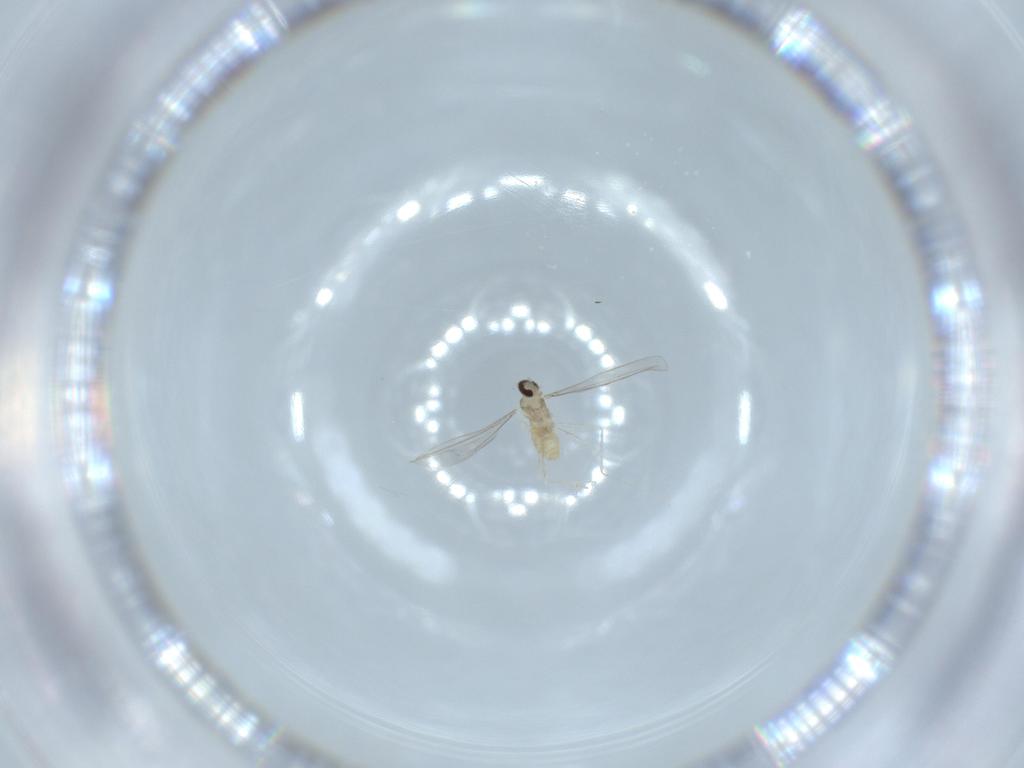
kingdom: Animalia
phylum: Arthropoda
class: Insecta
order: Diptera
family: Cecidomyiidae
